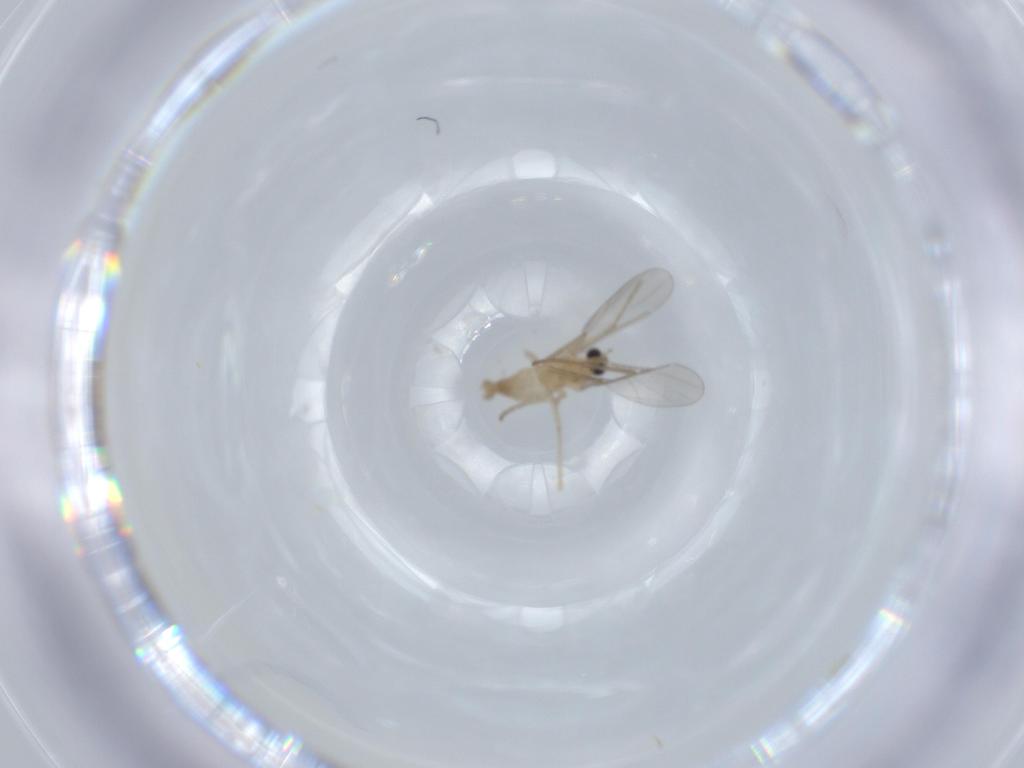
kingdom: Animalia
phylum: Arthropoda
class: Insecta
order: Diptera
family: Cecidomyiidae
